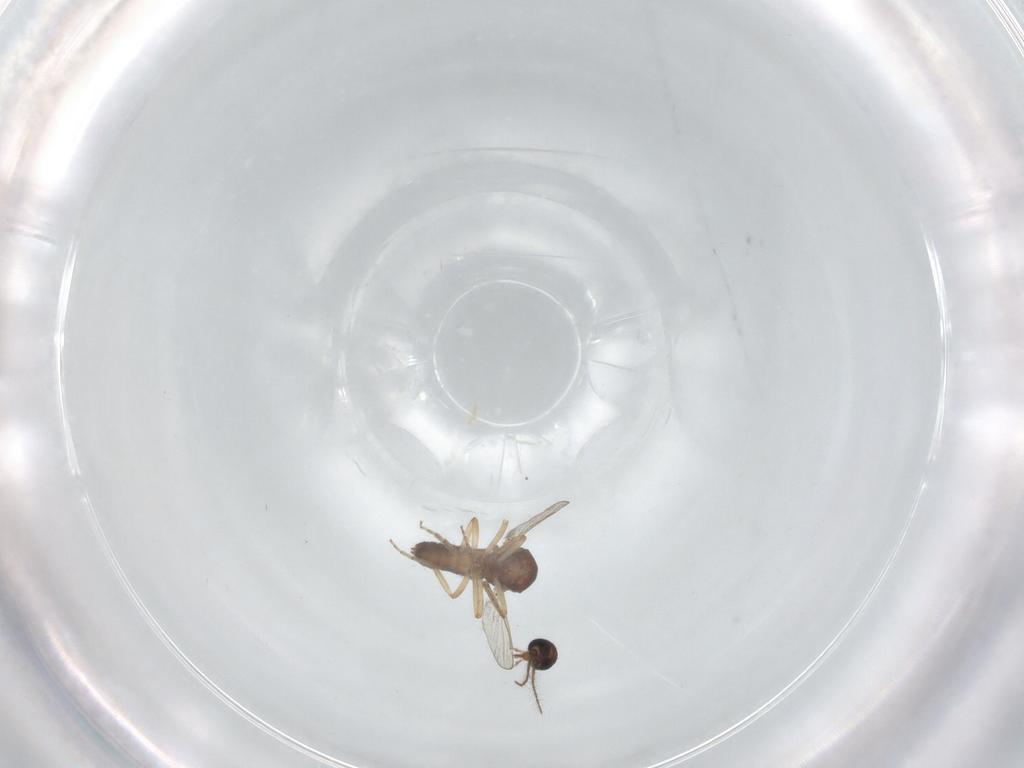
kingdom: Animalia
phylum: Arthropoda
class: Insecta
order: Diptera
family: Ceratopogonidae
